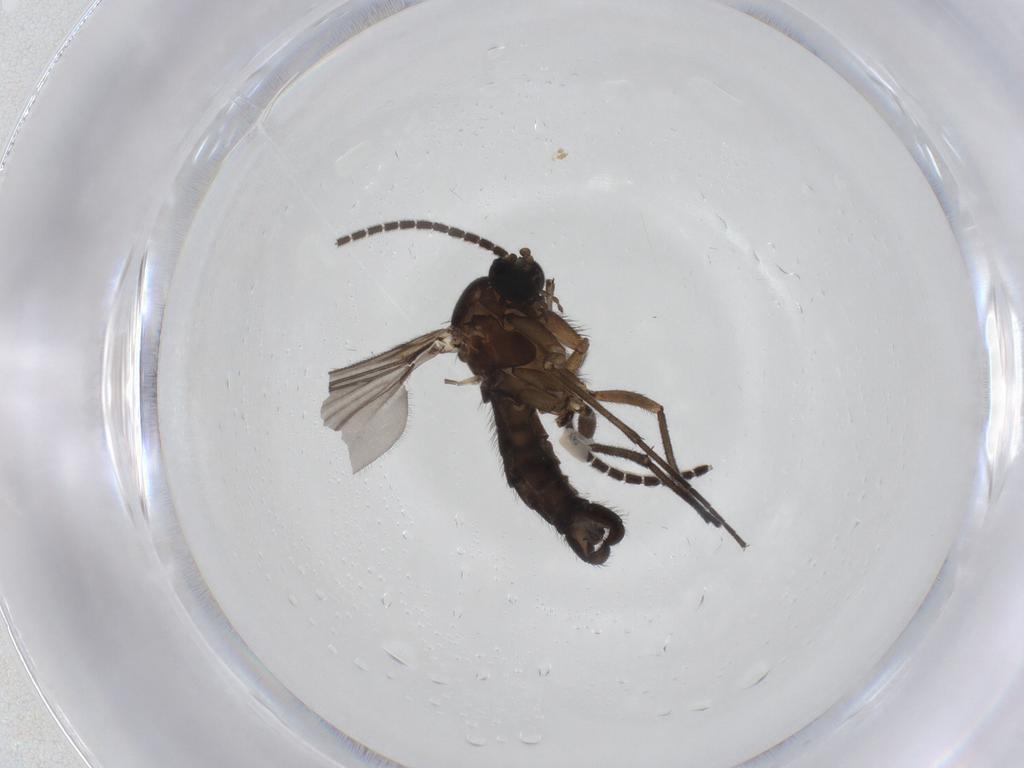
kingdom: Animalia
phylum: Arthropoda
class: Insecta
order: Diptera
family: Sciaridae
